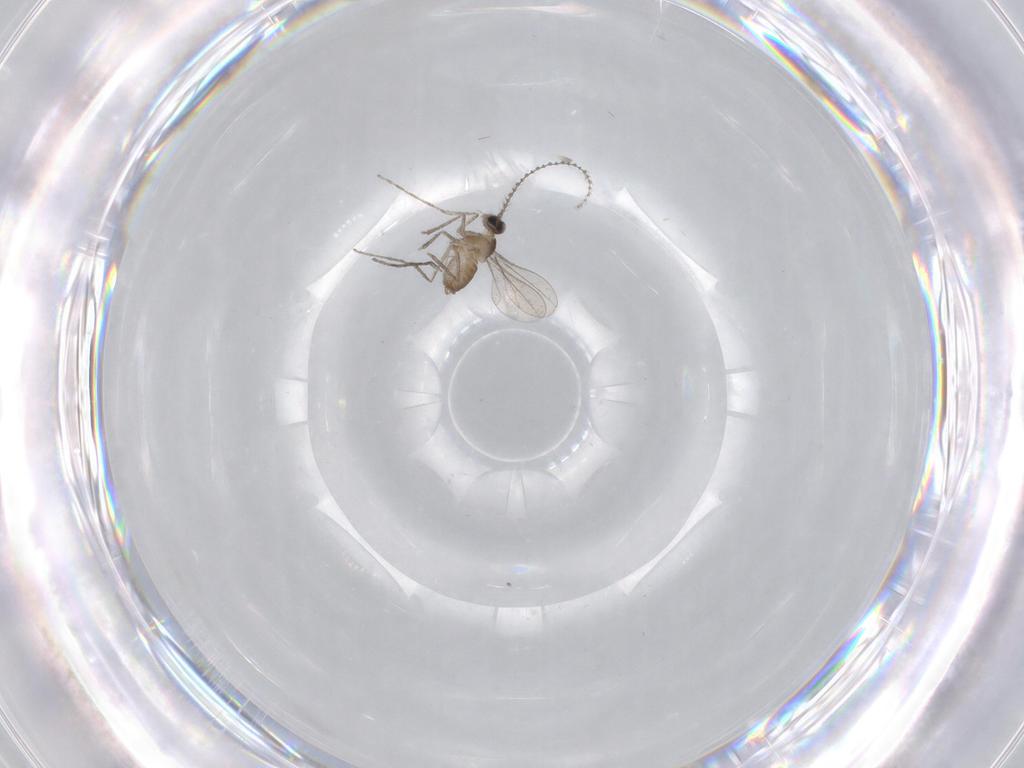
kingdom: Animalia
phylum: Arthropoda
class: Insecta
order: Diptera
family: Cecidomyiidae
